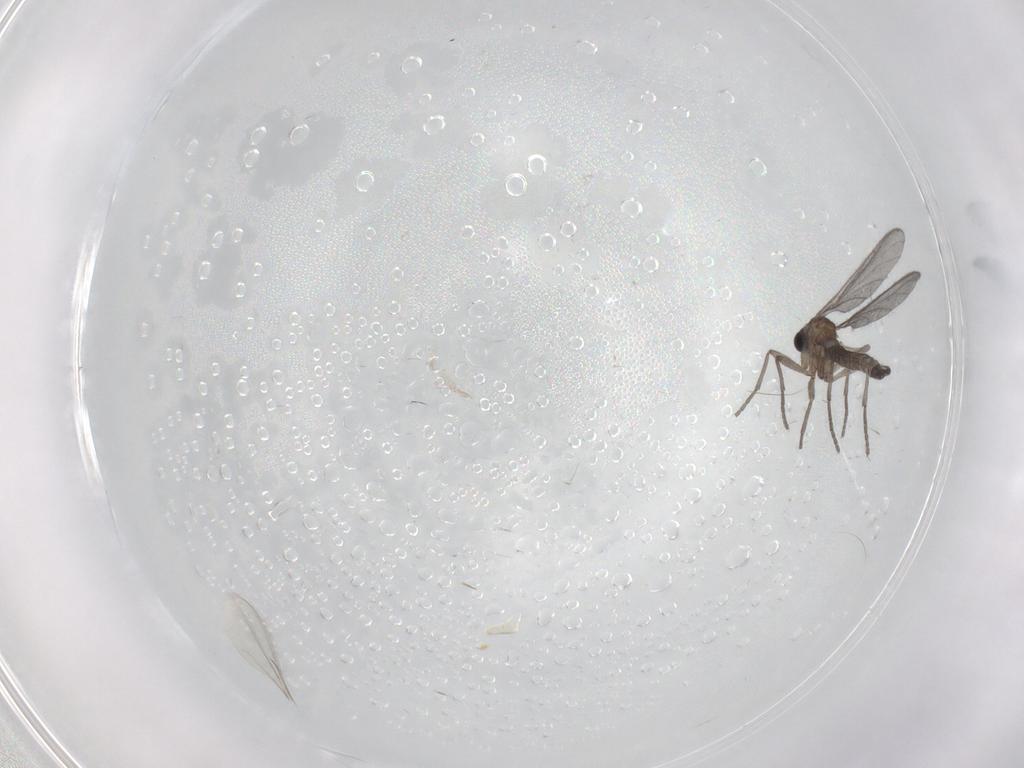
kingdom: Animalia
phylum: Arthropoda
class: Insecta
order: Diptera
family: Sciaridae
